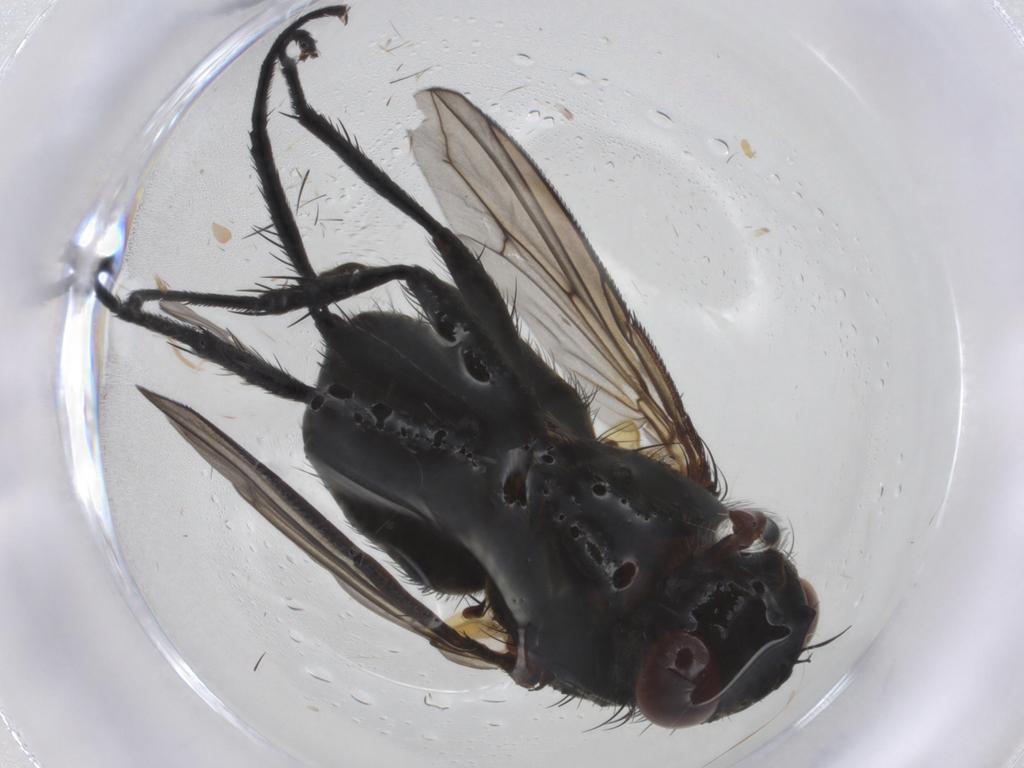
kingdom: Animalia
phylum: Arthropoda
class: Insecta
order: Diptera
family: Tachinidae
